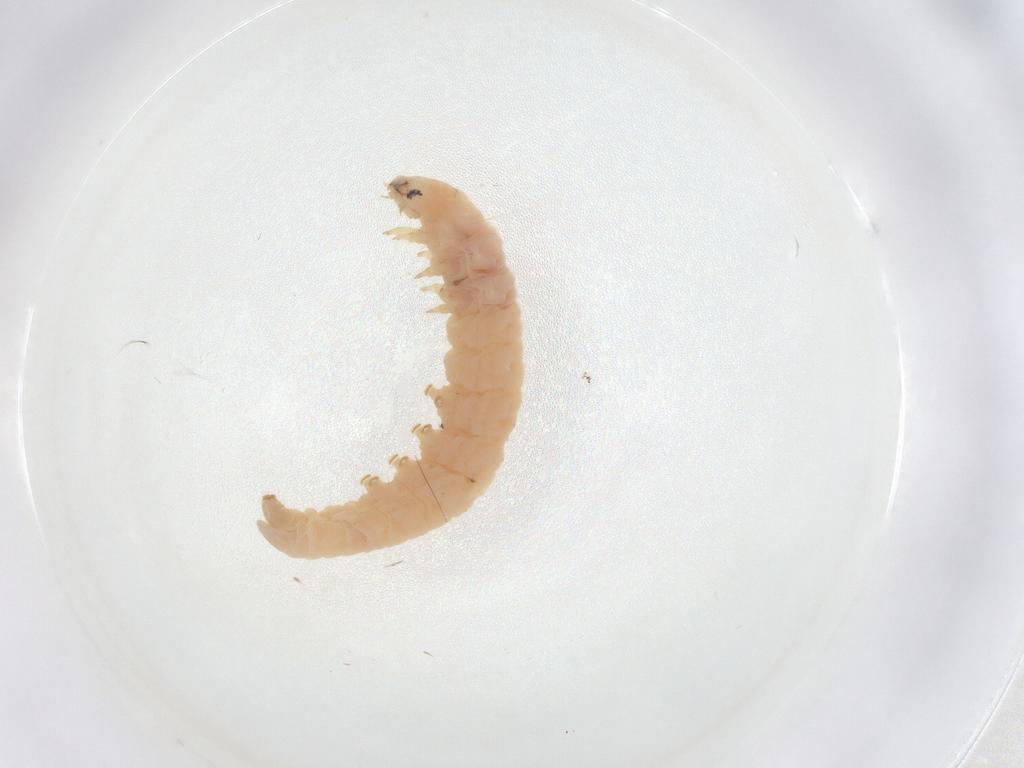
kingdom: Animalia
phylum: Arthropoda
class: Insecta
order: Lepidoptera
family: Gelechiidae
